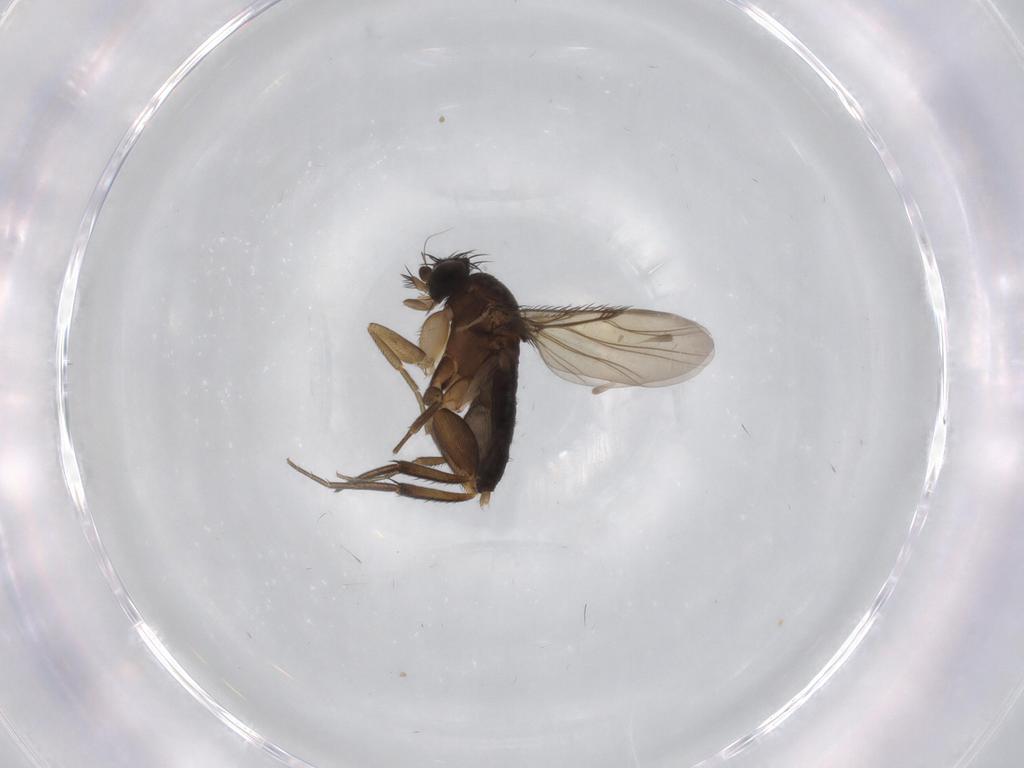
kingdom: Animalia
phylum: Arthropoda
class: Insecta
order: Diptera
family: Phoridae
